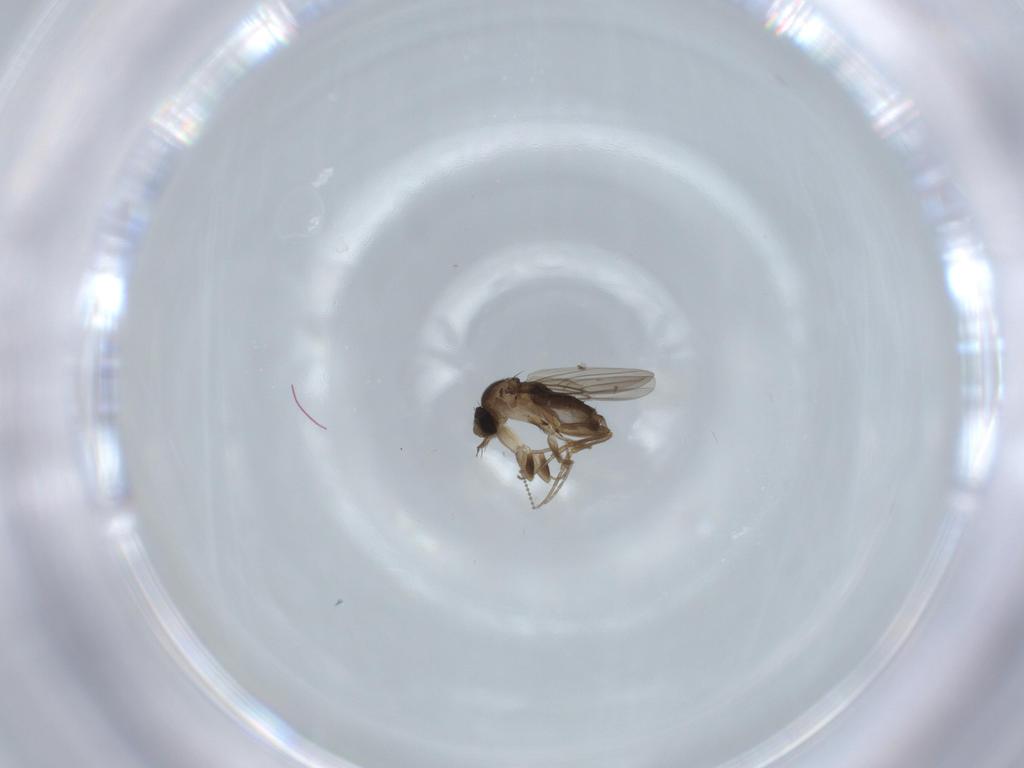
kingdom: Animalia
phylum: Arthropoda
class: Insecta
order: Diptera
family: Phoridae
